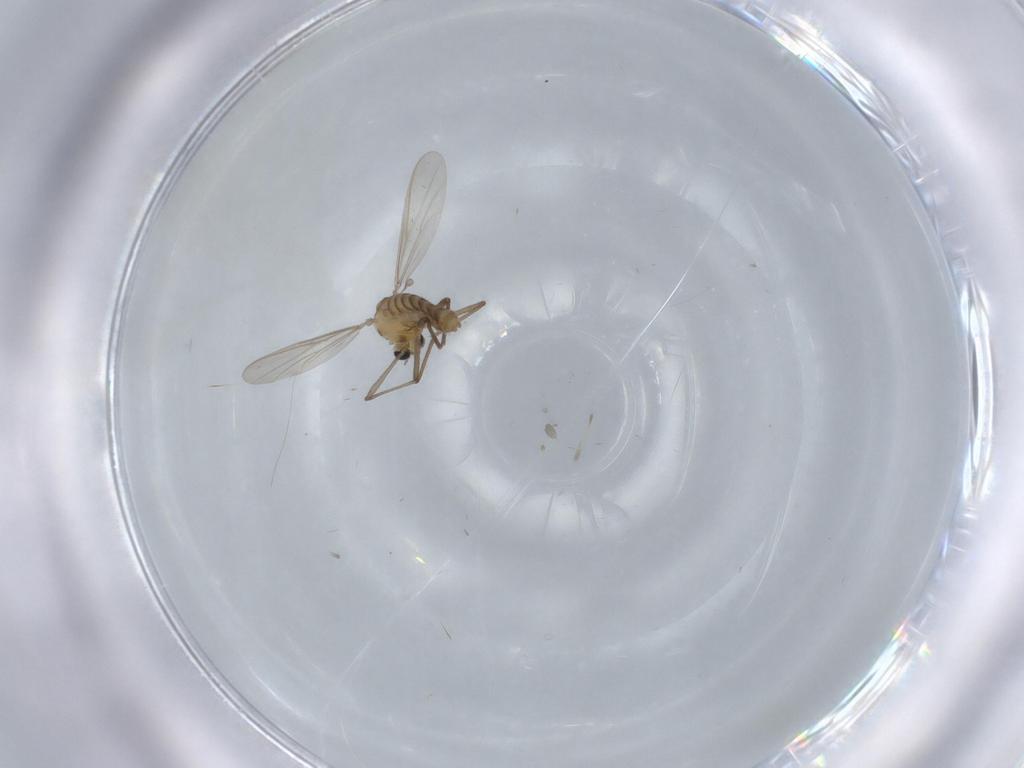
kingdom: Animalia
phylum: Arthropoda
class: Insecta
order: Diptera
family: Chironomidae
